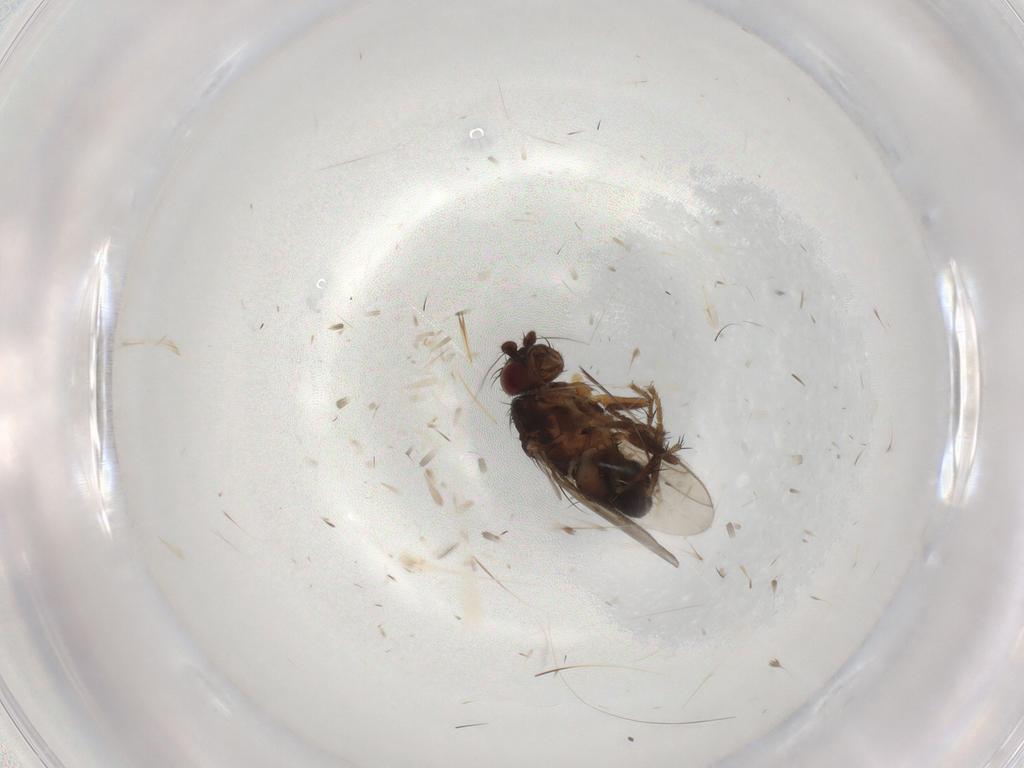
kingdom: Animalia
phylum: Arthropoda
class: Insecta
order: Diptera
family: Sphaeroceridae
